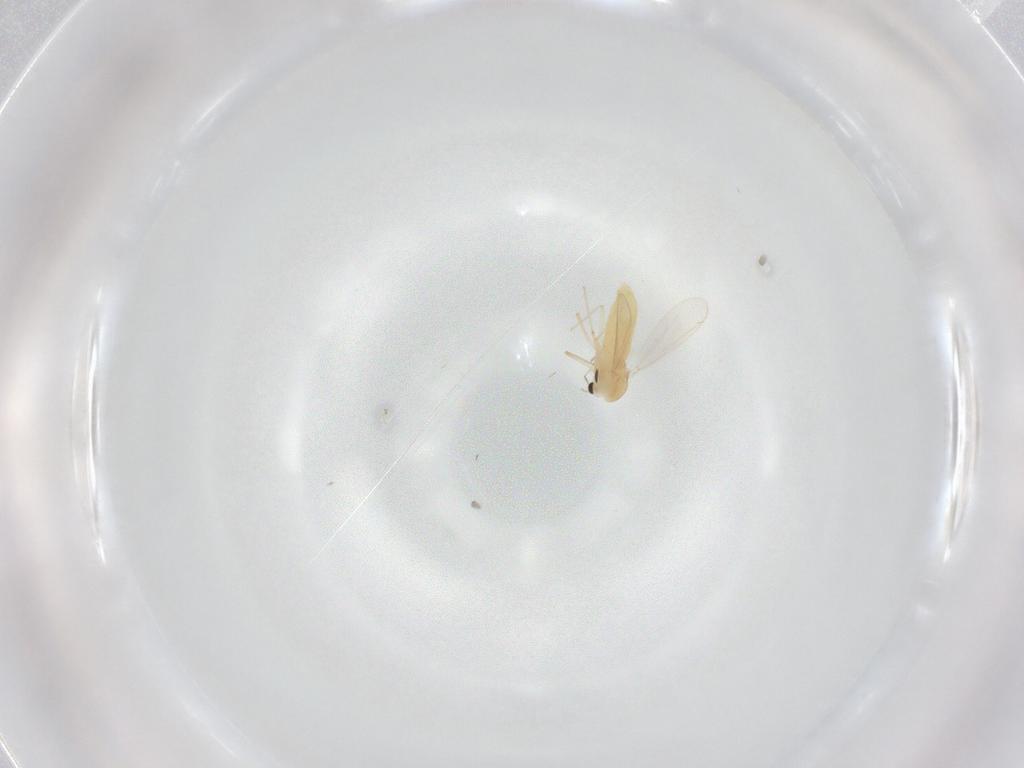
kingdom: Animalia
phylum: Arthropoda
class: Insecta
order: Diptera
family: Chironomidae
